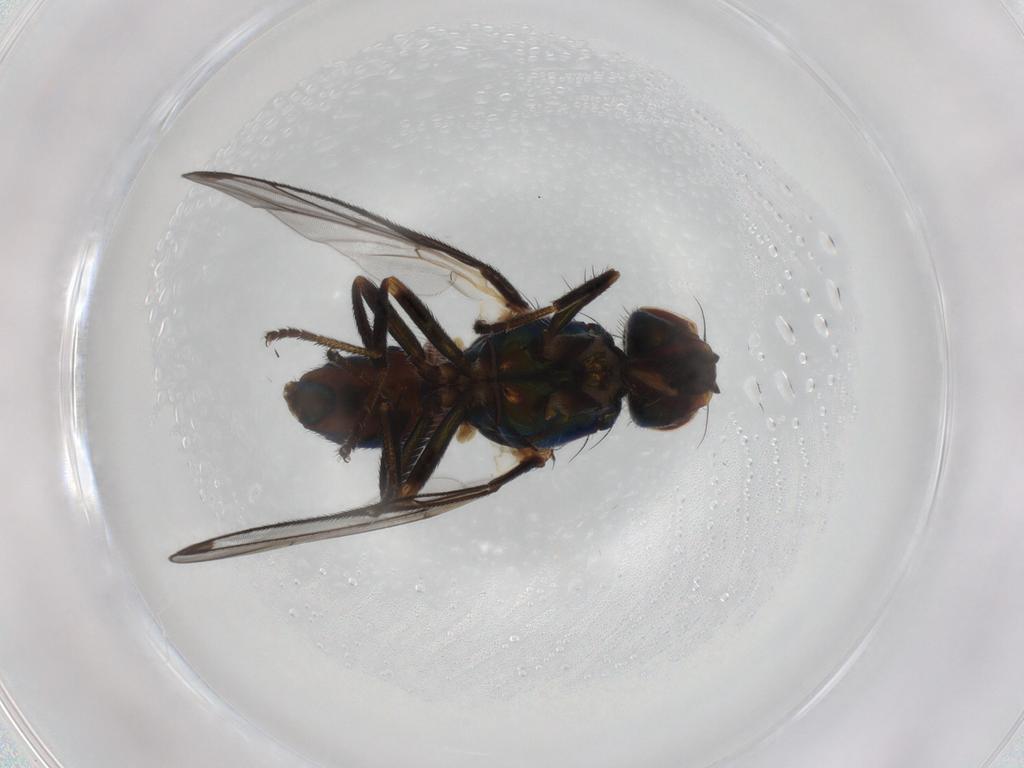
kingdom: Animalia
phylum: Arthropoda
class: Insecta
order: Diptera
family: Platystomatidae
